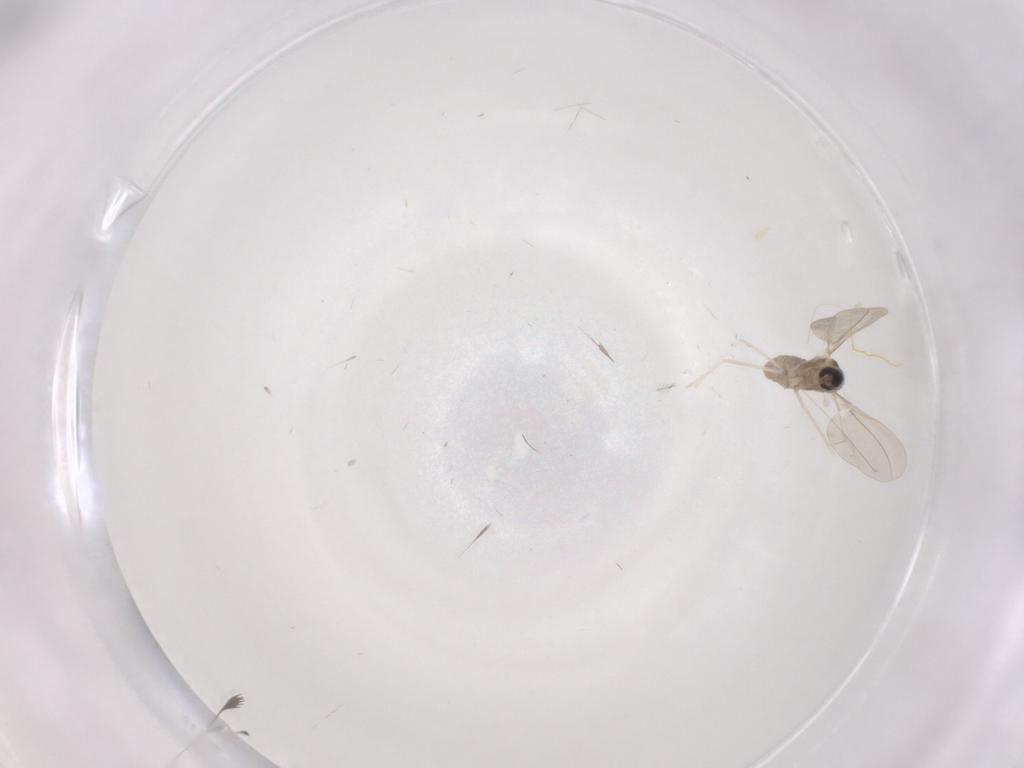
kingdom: Animalia
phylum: Arthropoda
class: Insecta
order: Diptera
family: Cecidomyiidae
